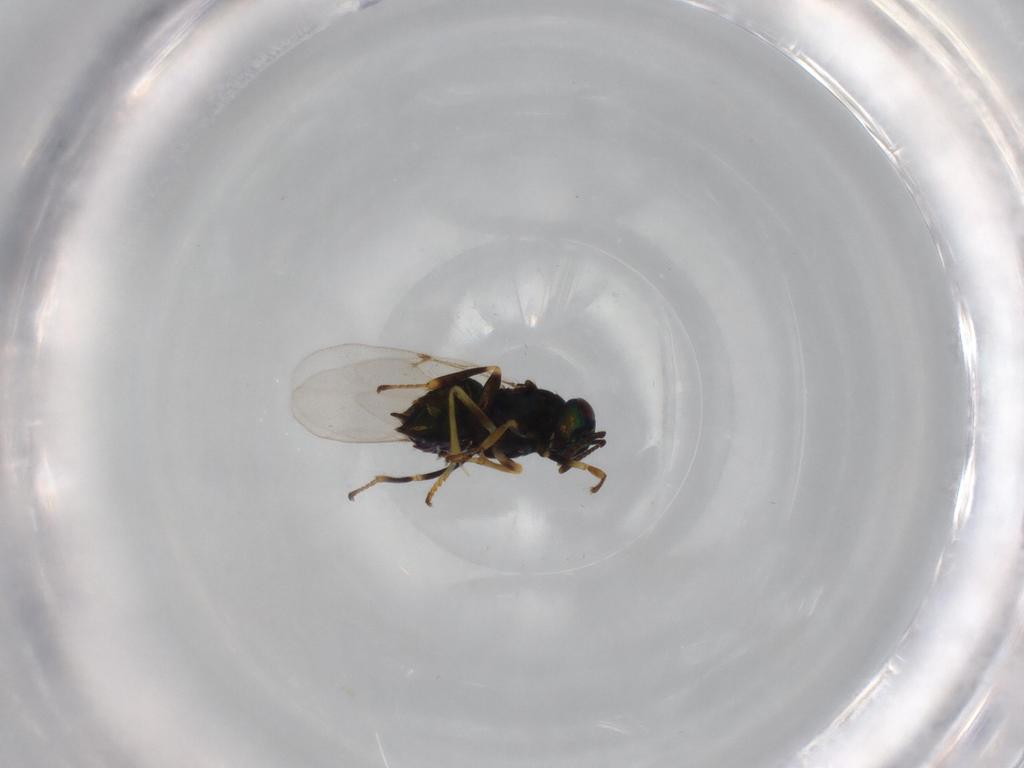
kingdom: Animalia
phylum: Arthropoda
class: Insecta
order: Hymenoptera
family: Encyrtidae
